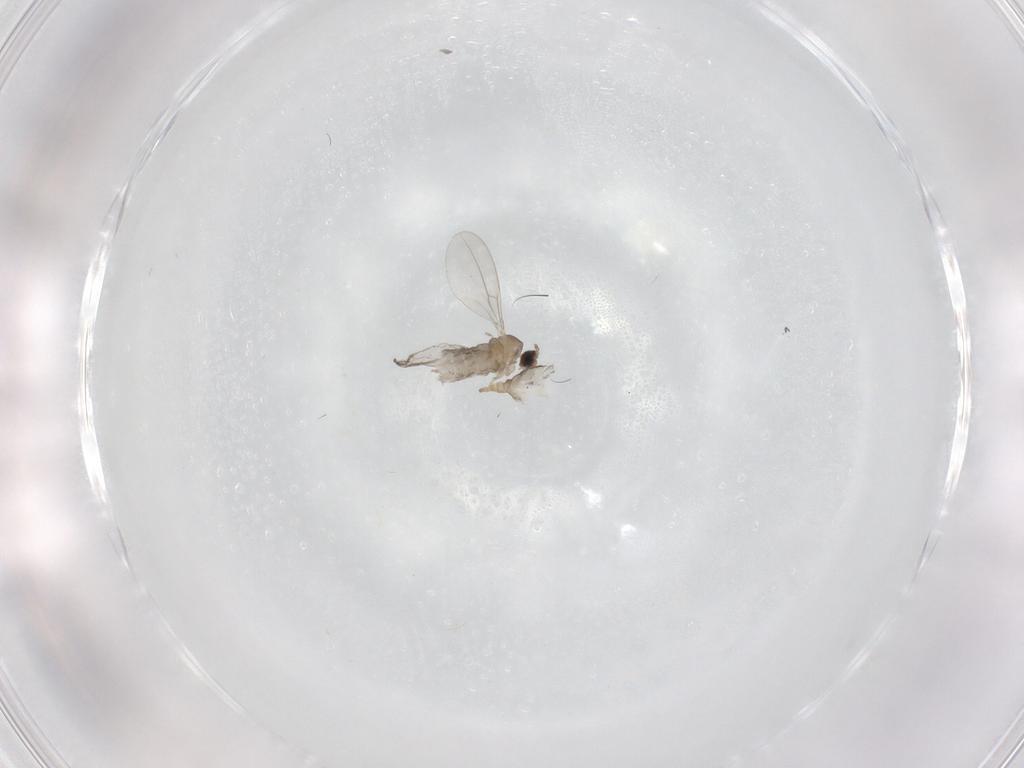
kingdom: Animalia
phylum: Arthropoda
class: Insecta
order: Diptera
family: Cecidomyiidae
